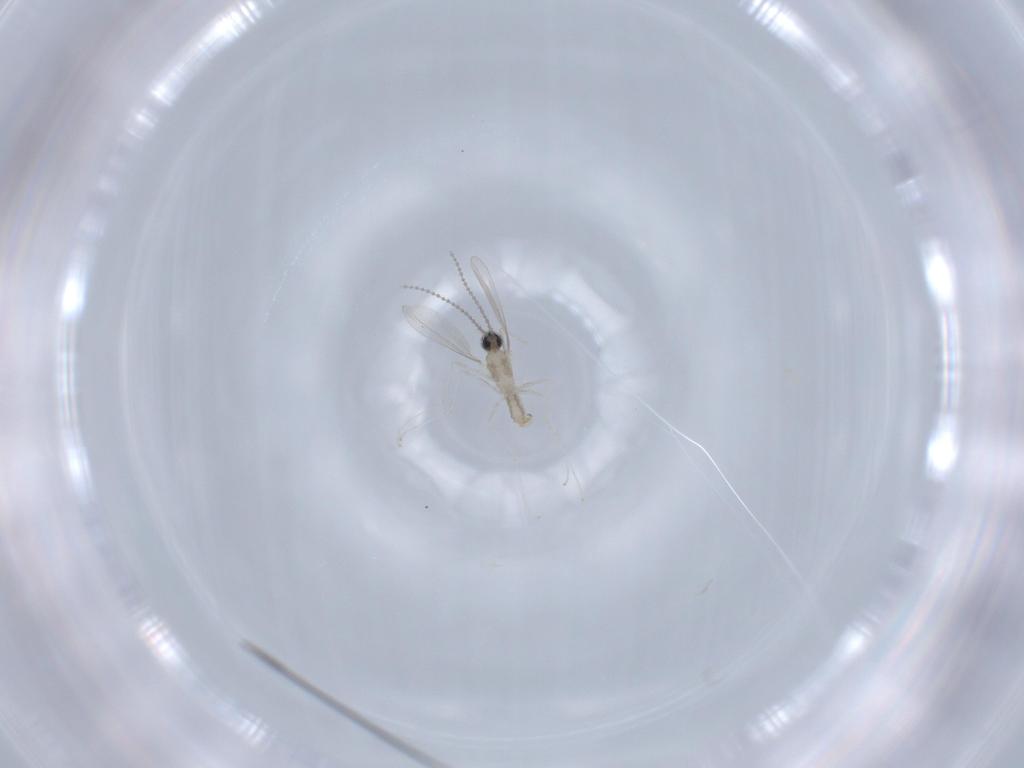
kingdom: Animalia
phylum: Arthropoda
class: Insecta
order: Diptera
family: Cecidomyiidae
